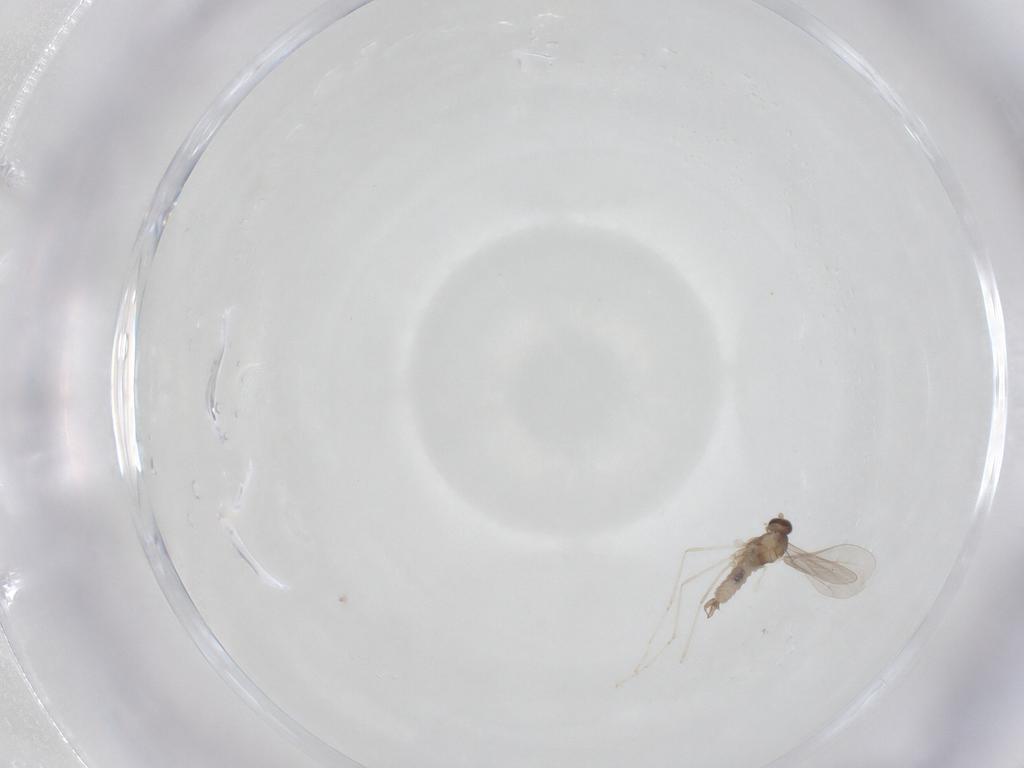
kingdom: Animalia
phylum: Arthropoda
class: Insecta
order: Diptera
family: Cecidomyiidae
